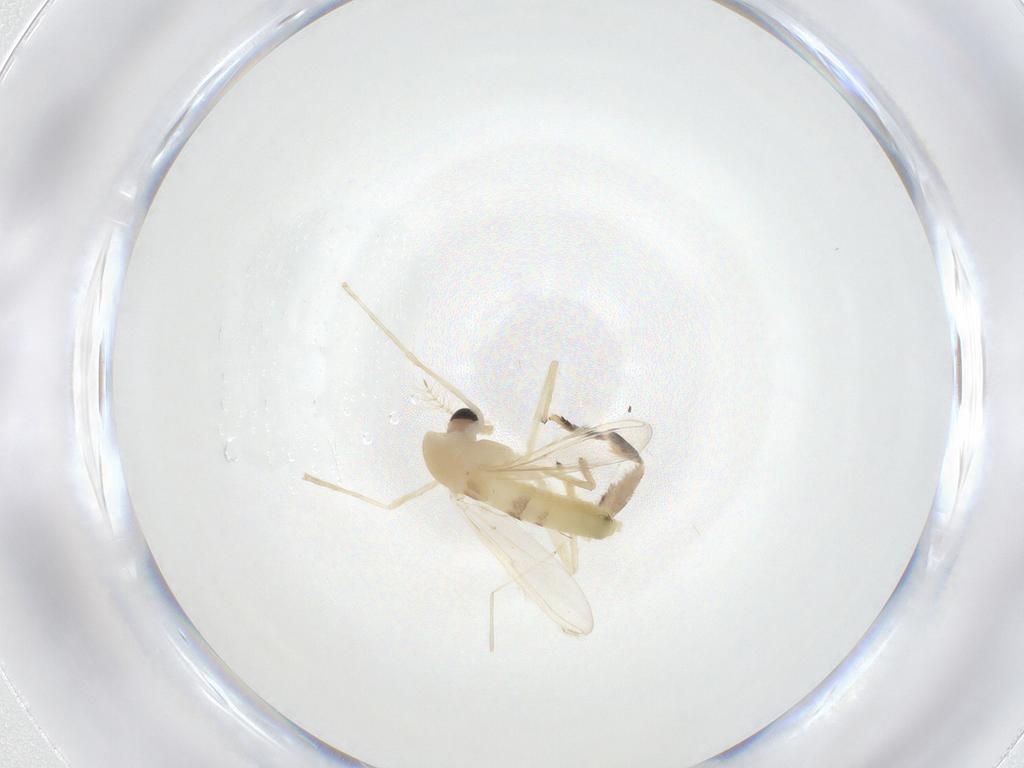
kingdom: Animalia
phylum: Arthropoda
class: Insecta
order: Diptera
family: Chironomidae
